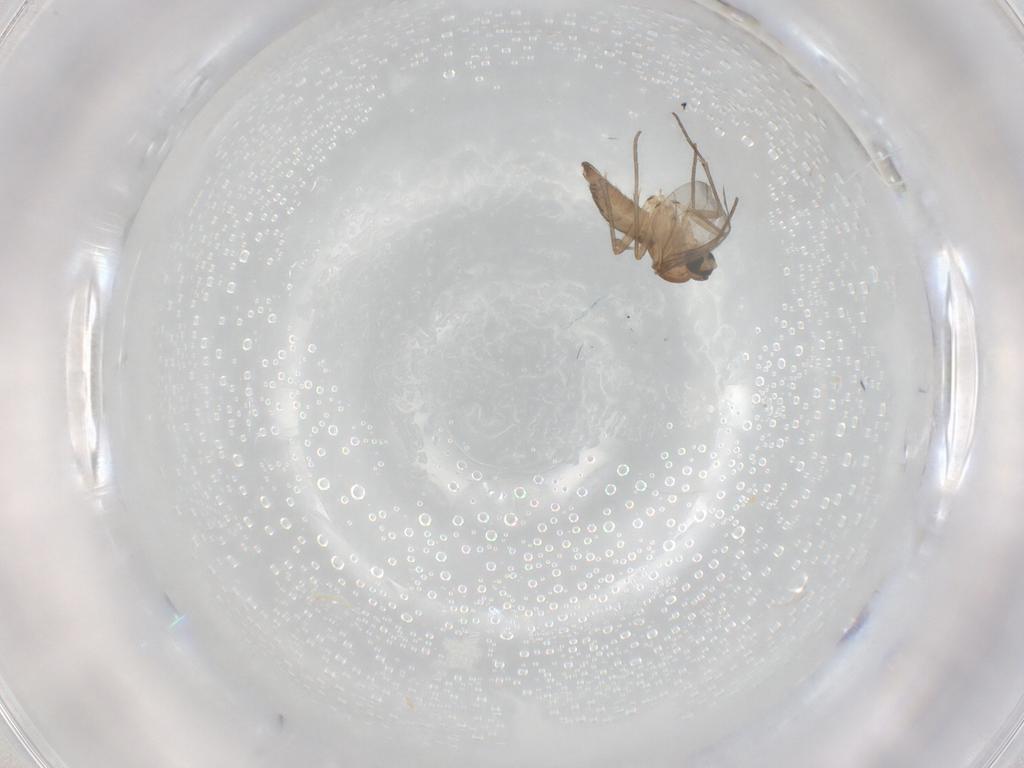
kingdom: Animalia
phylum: Arthropoda
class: Insecta
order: Diptera
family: Sciaridae
